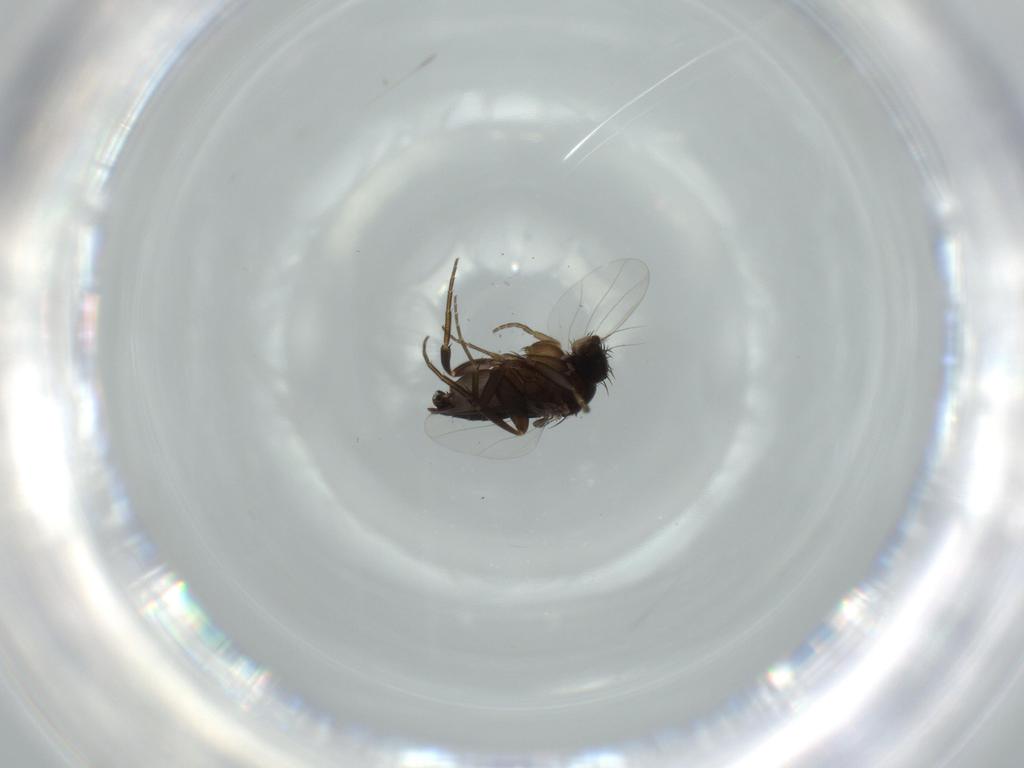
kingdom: Animalia
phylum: Arthropoda
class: Insecta
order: Diptera
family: Phoridae
